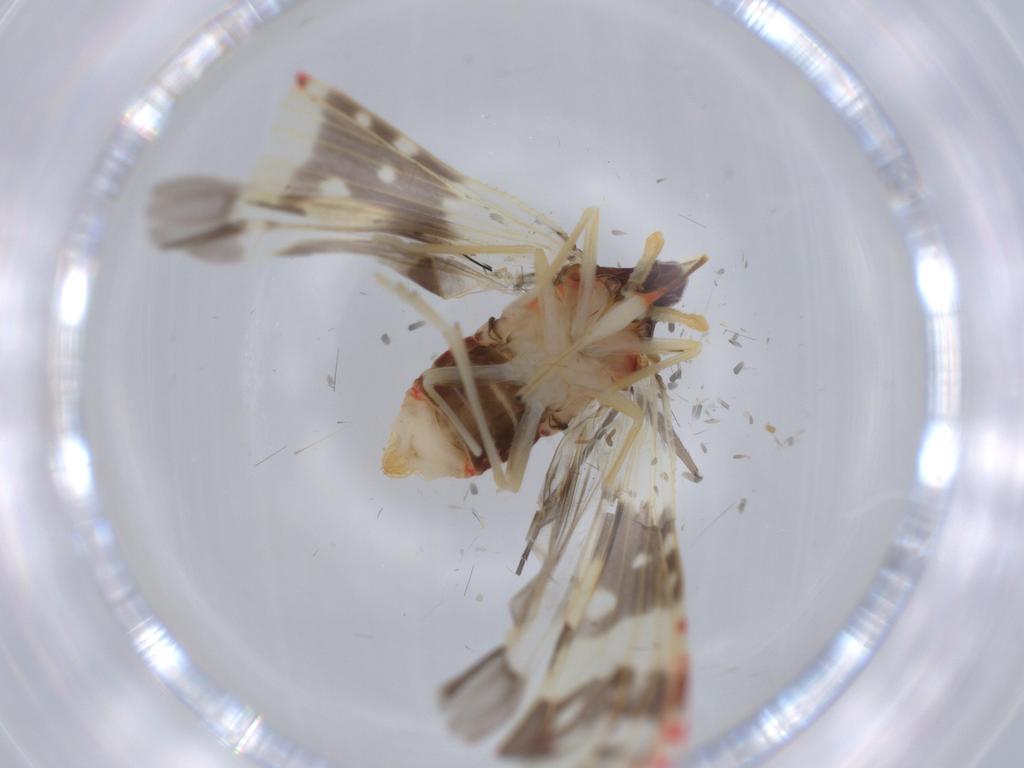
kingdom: Animalia
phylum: Arthropoda
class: Insecta
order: Hemiptera
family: Derbidae
